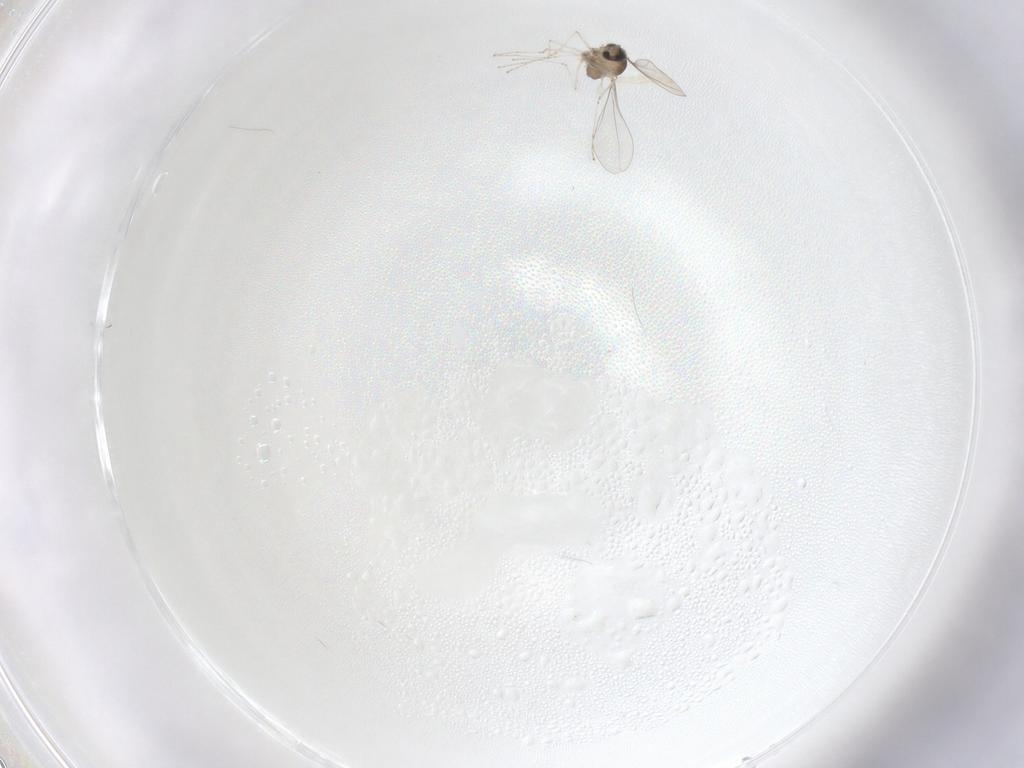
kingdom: Animalia
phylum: Arthropoda
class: Insecta
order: Diptera
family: Cecidomyiidae
